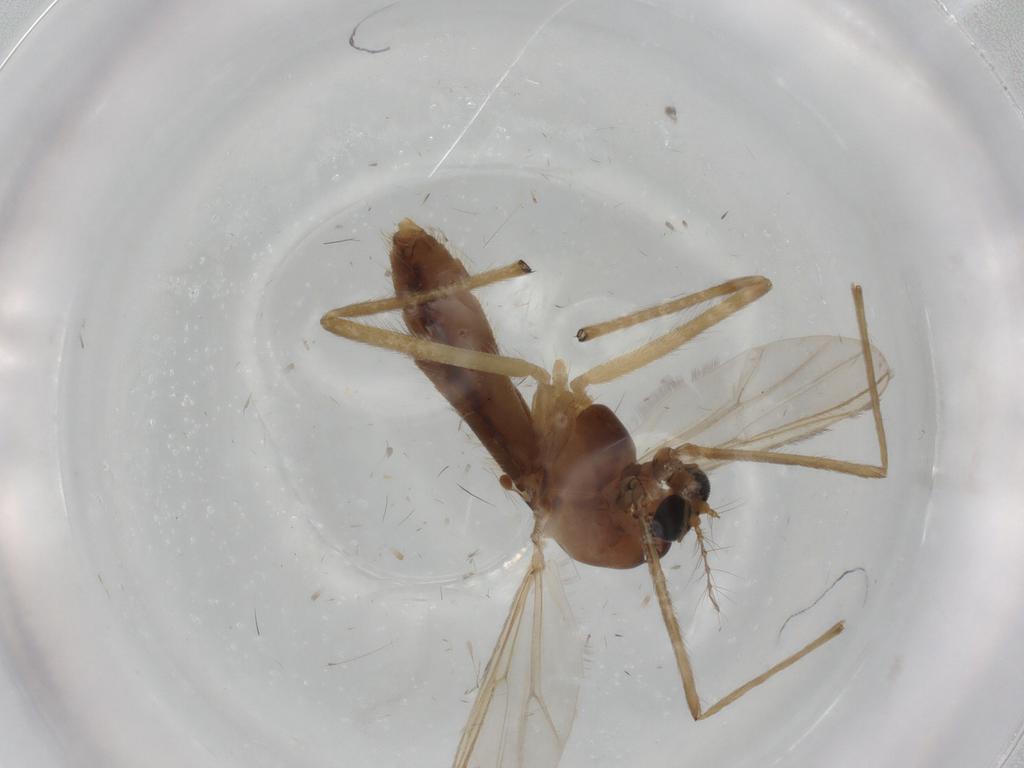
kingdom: Animalia
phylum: Arthropoda
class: Insecta
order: Diptera
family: Chironomidae
